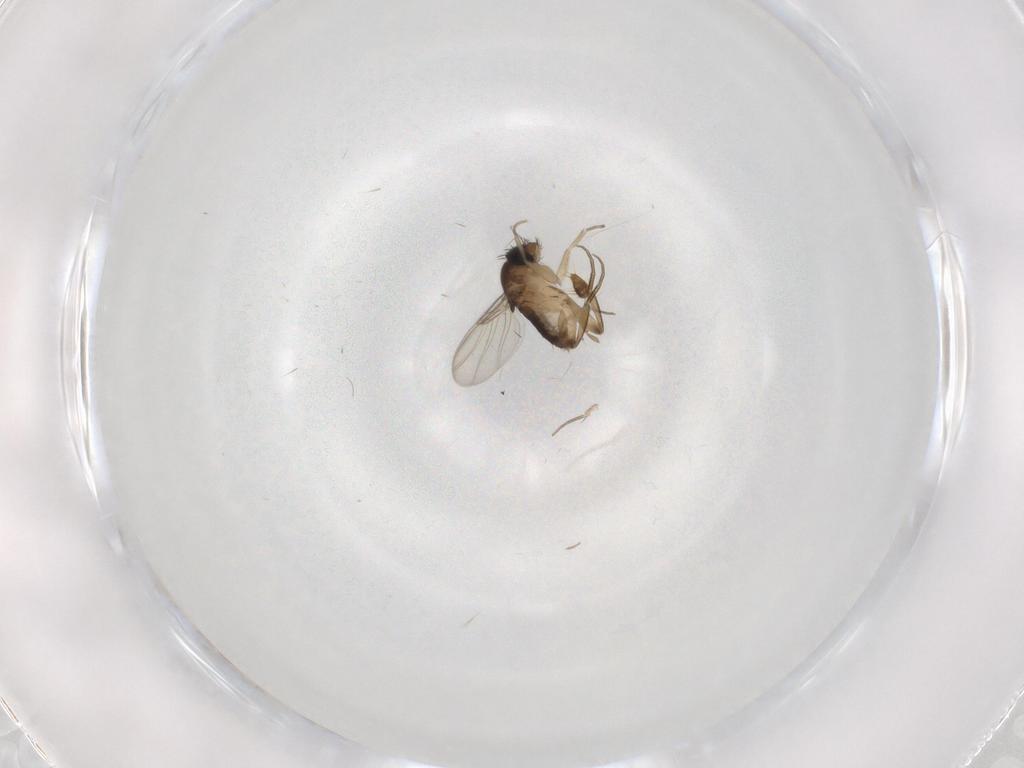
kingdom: Animalia
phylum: Arthropoda
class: Insecta
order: Diptera
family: Phoridae
